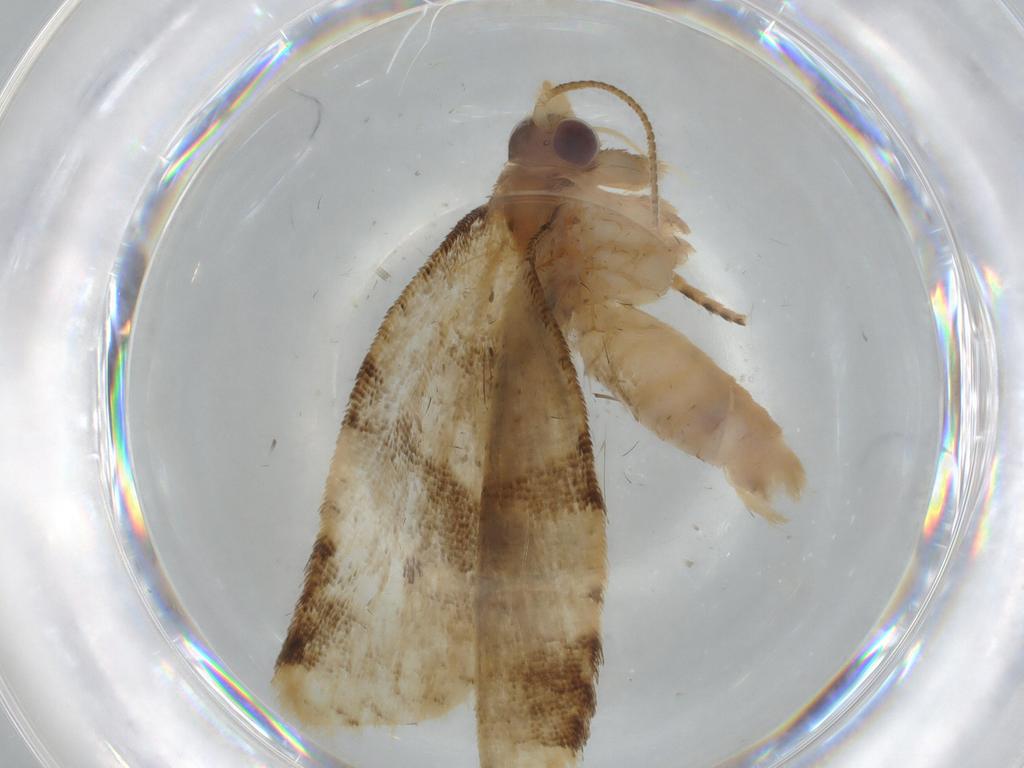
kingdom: Animalia
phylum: Arthropoda
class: Insecta
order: Lepidoptera
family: Tortricidae
